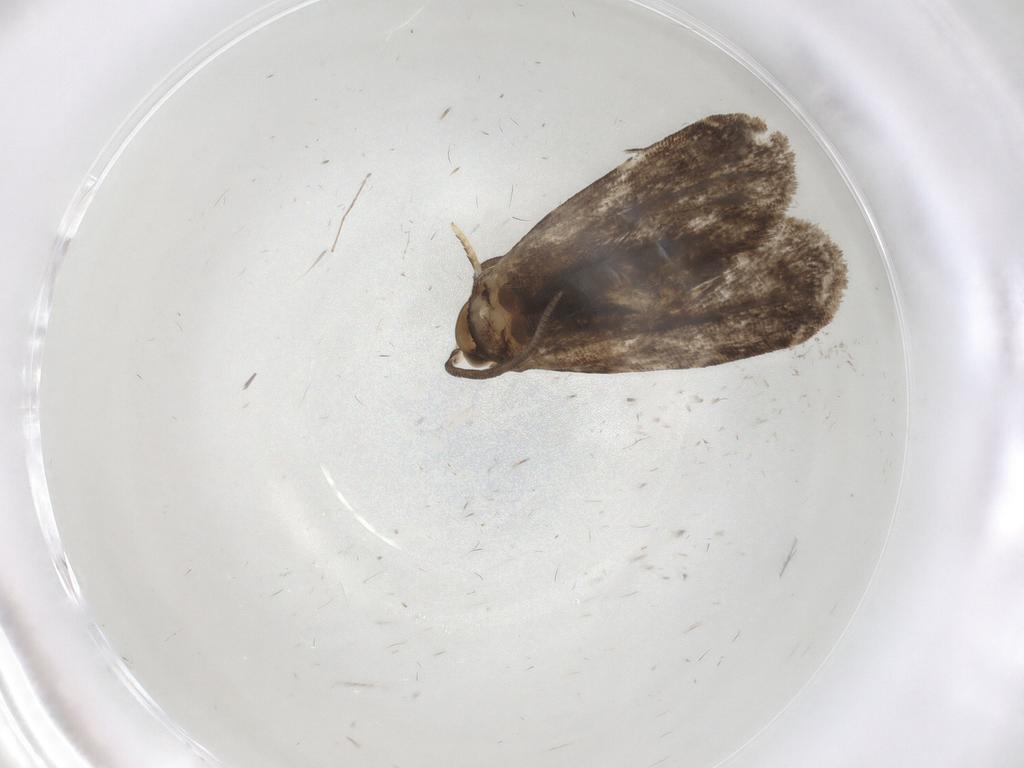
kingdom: Animalia
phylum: Arthropoda
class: Insecta
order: Lepidoptera
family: Dryadaulidae
